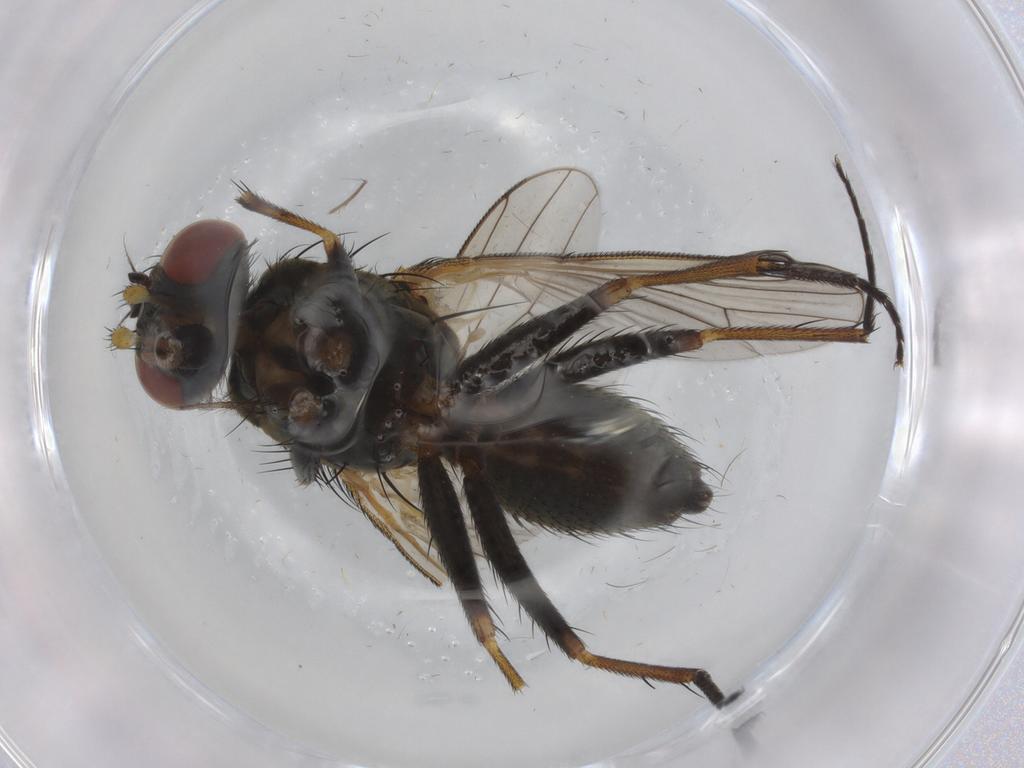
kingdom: Animalia
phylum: Arthropoda
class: Insecta
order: Diptera
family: Muscidae
